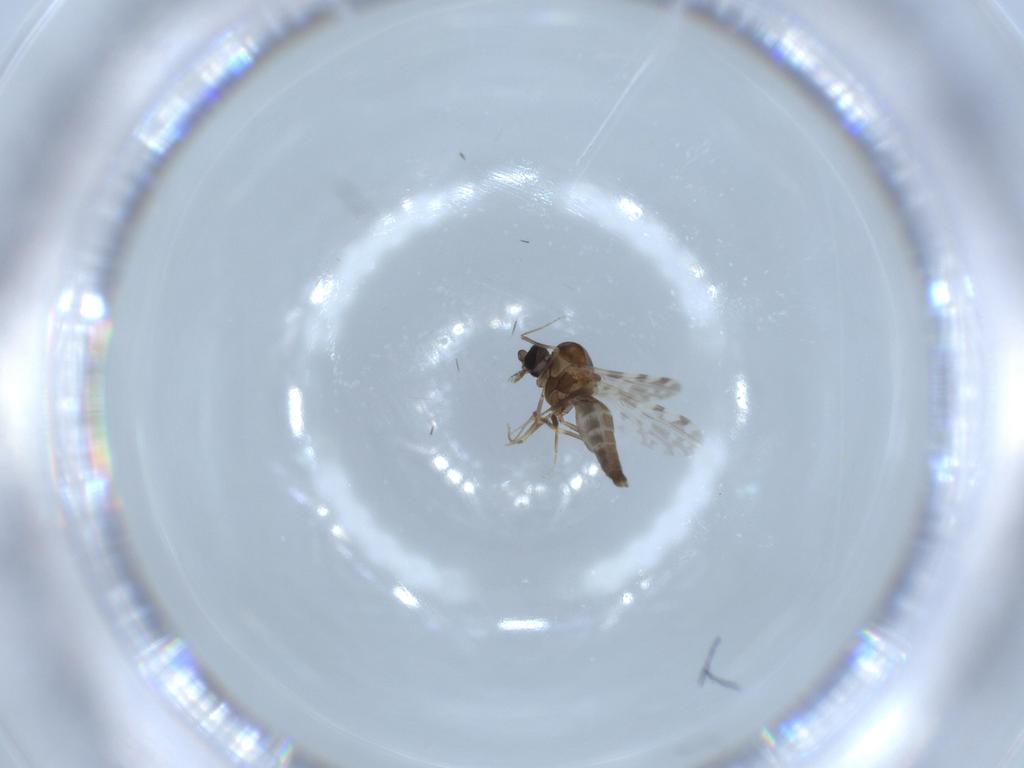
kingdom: Animalia
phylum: Arthropoda
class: Insecta
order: Diptera
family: Ceratopogonidae
